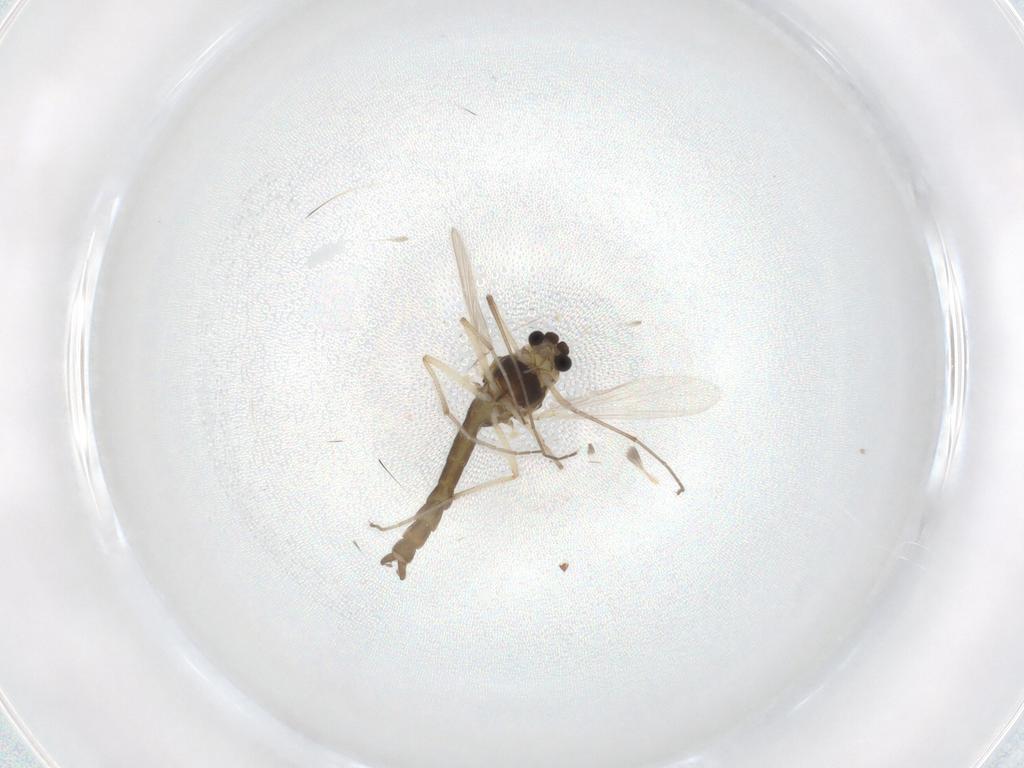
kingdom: Animalia
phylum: Arthropoda
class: Insecta
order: Diptera
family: Chironomidae
